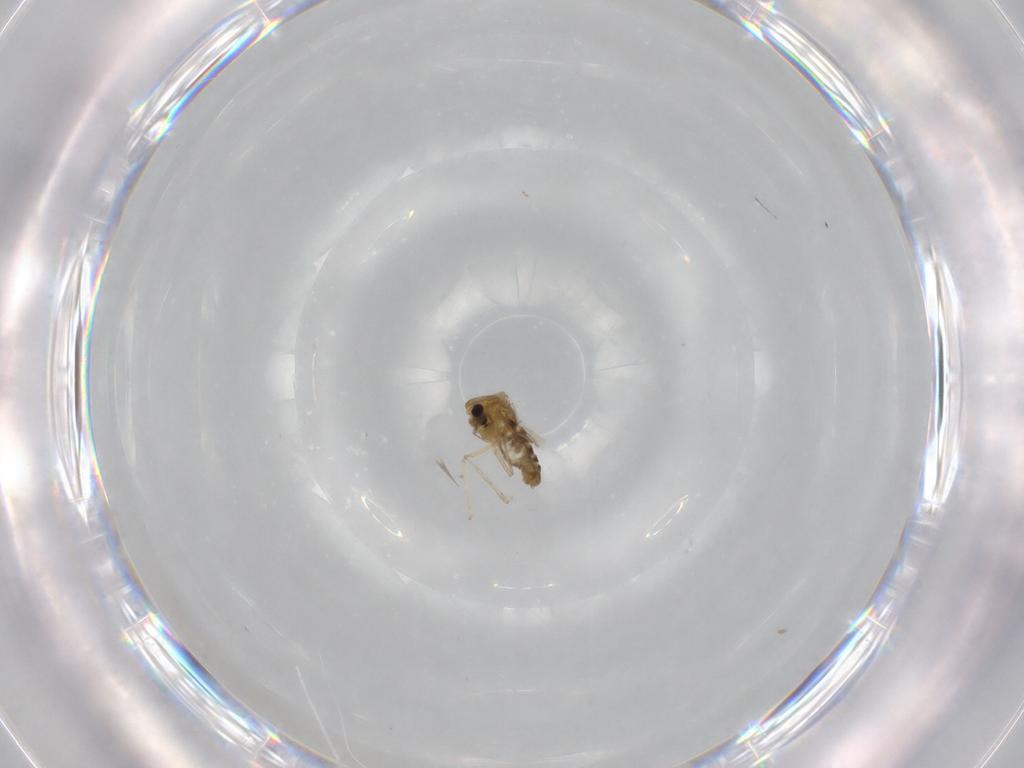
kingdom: Animalia
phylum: Arthropoda
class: Insecta
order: Diptera
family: Chironomidae
